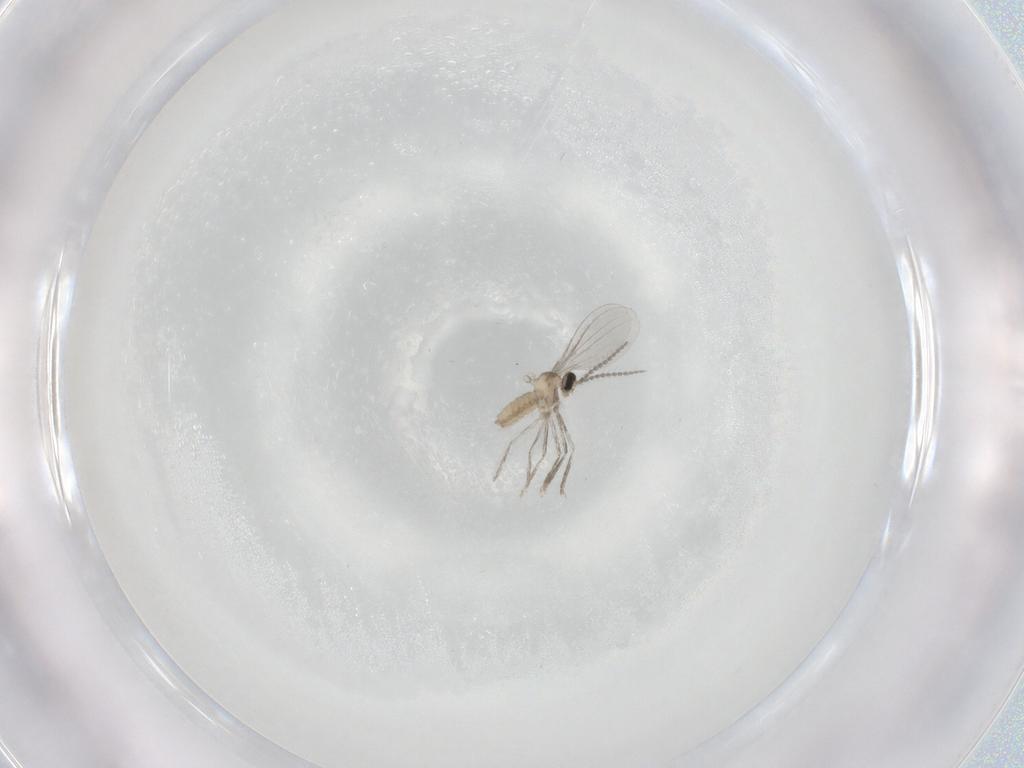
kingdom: Animalia
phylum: Arthropoda
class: Insecta
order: Diptera
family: Cecidomyiidae
